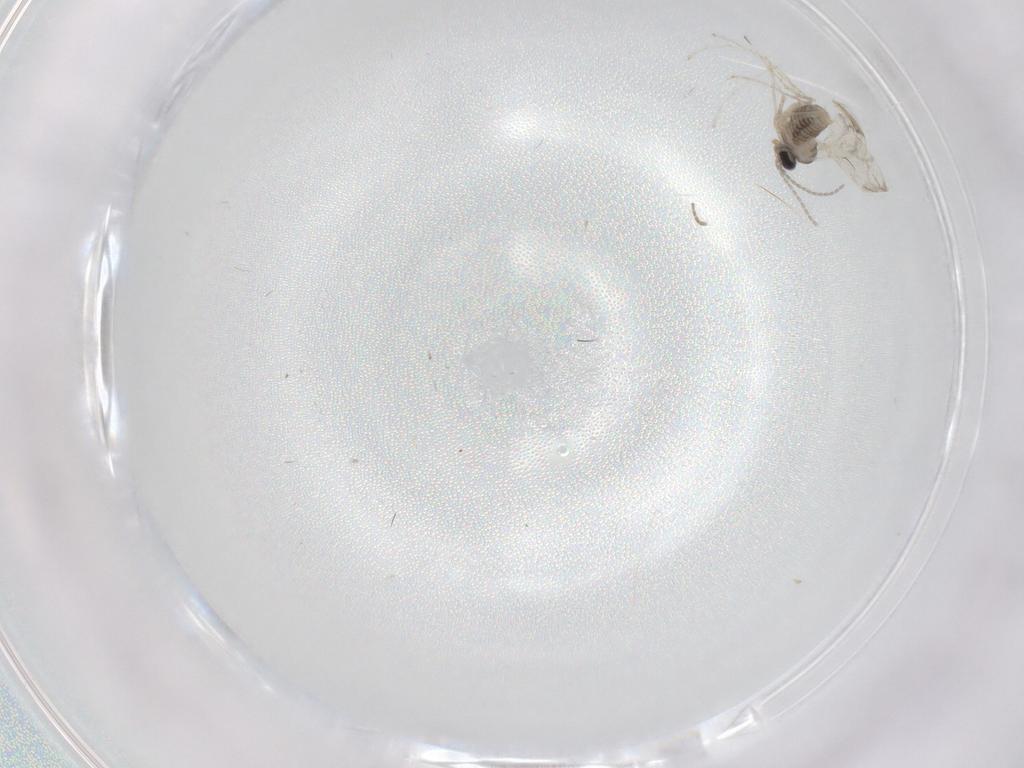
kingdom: Animalia
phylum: Arthropoda
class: Insecta
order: Diptera
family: Cecidomyiidae
